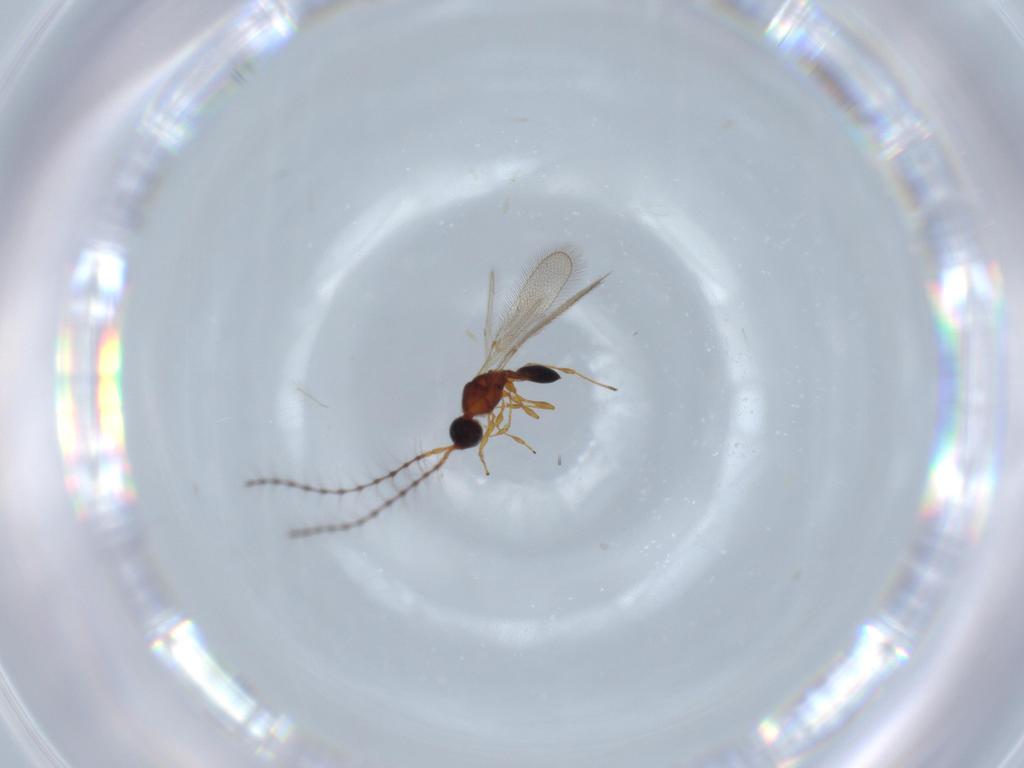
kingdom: Animalia
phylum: Arthropoda
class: Insecta
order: Hymenoptera
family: Diapriidae
